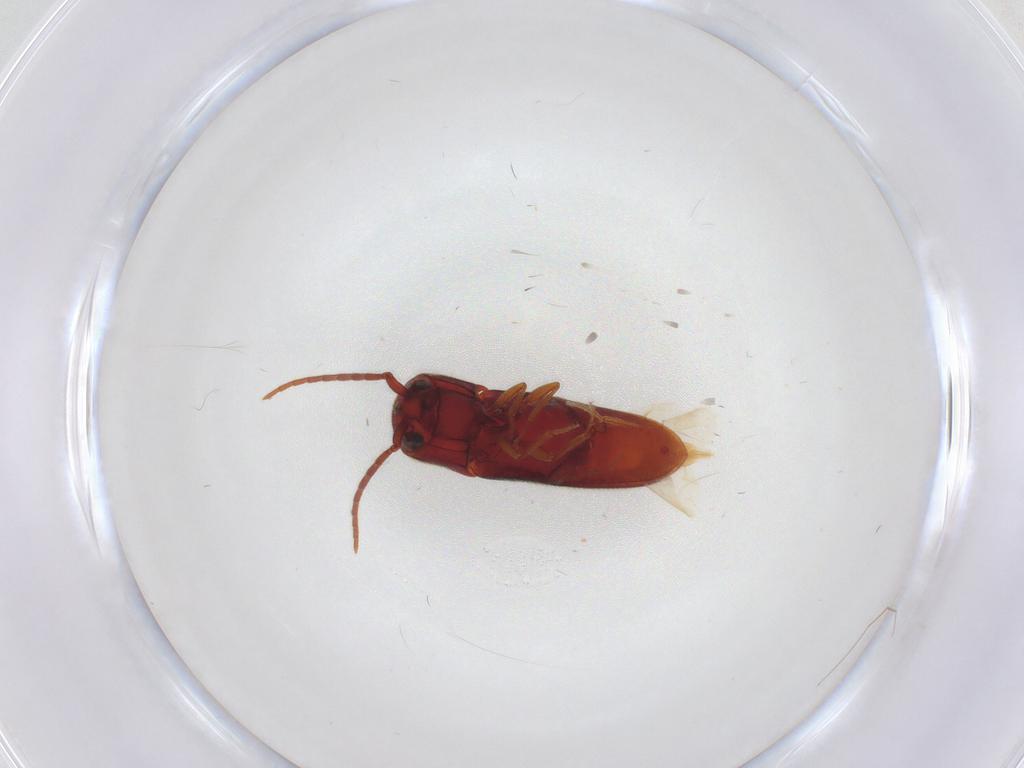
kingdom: Animalia
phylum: Arthropoda
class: Insecta
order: Coleoptera
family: Eucnemidae
